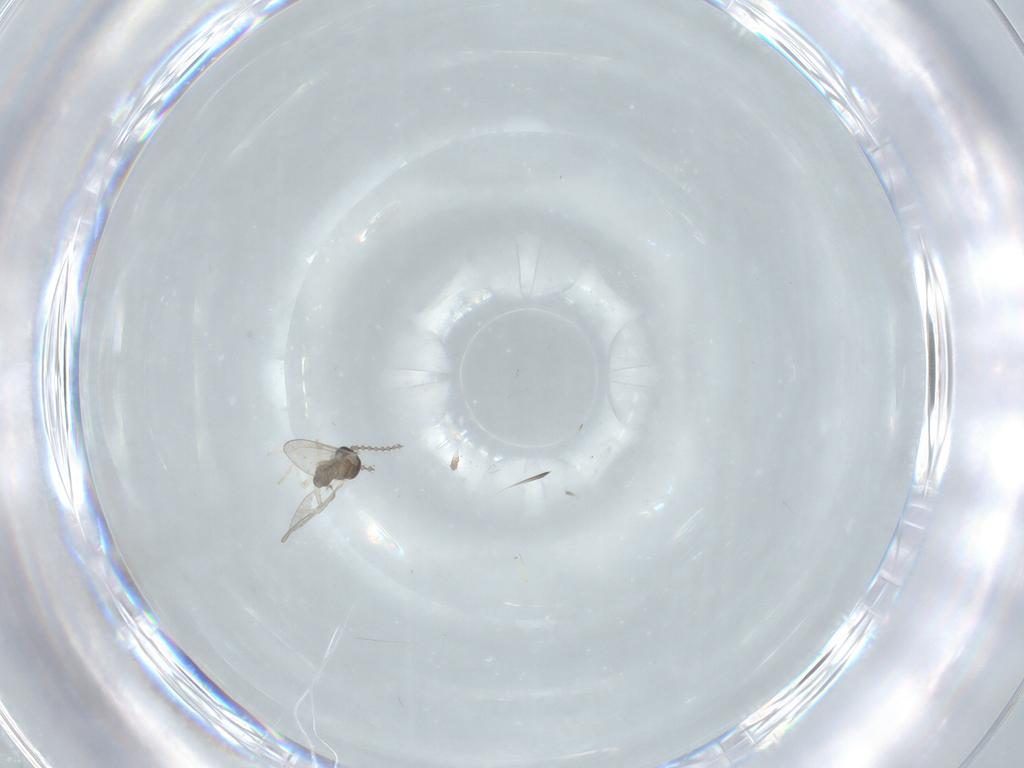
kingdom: Animalia
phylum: Arthropoda
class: Insecta
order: Diptera
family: Cecidomyiidae
